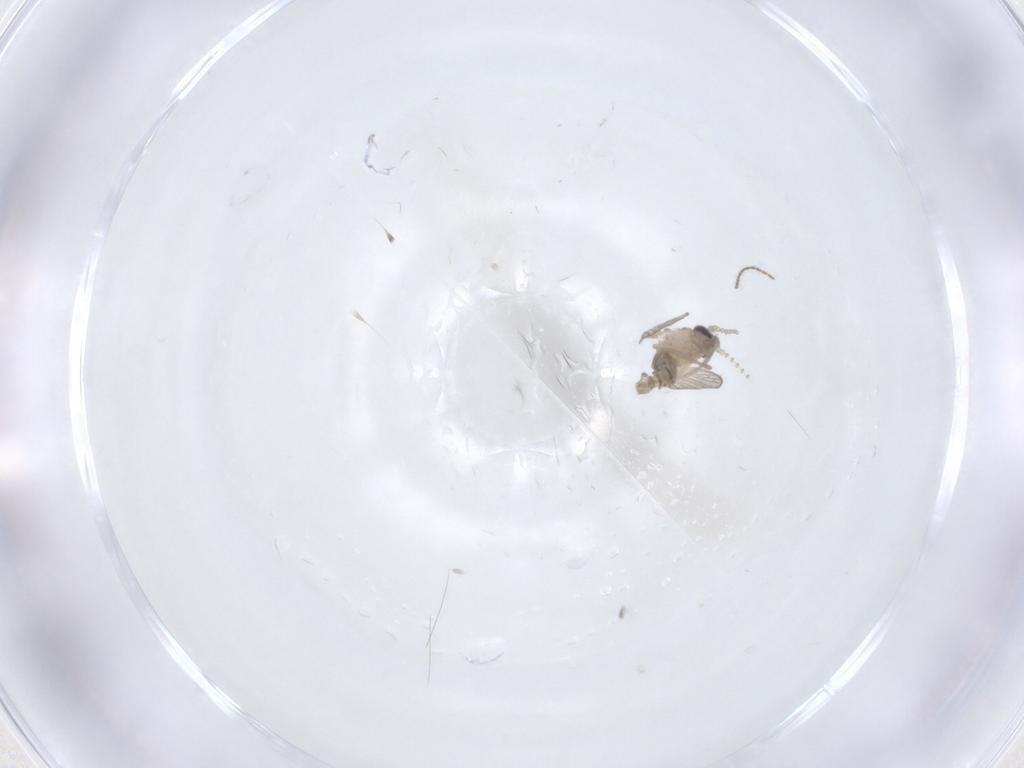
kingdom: Animalia
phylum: Arthropoda
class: Insecta
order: Diptera
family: Psychodidae
